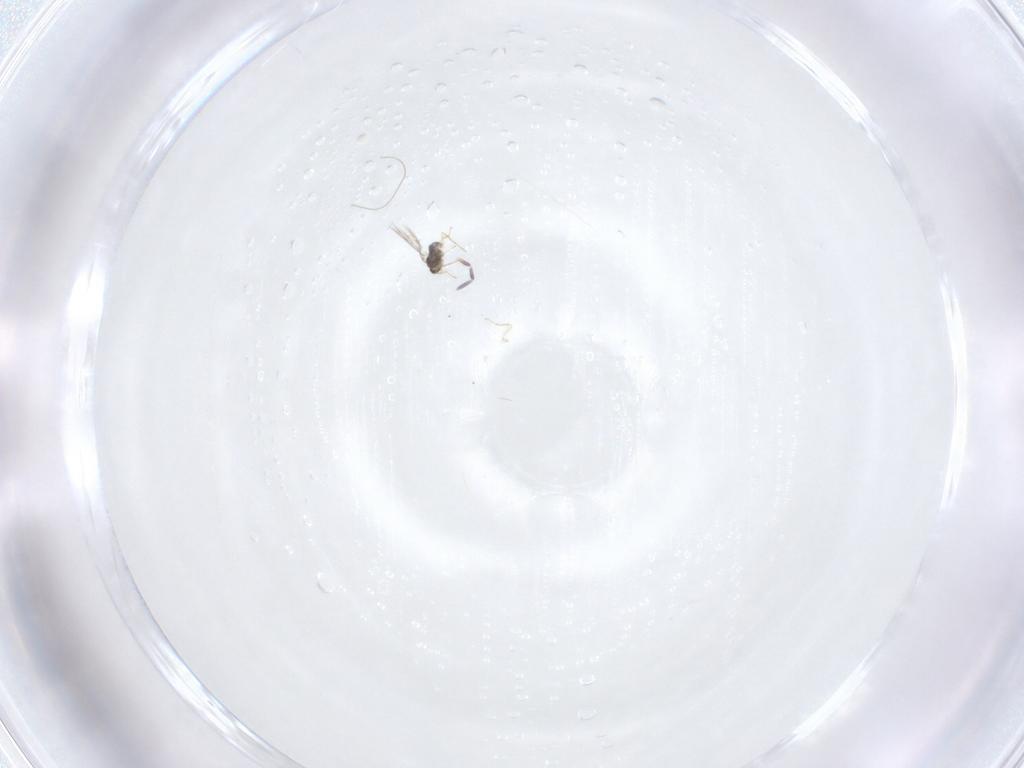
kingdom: Animalia
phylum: Arthropoda
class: Insecta
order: Hymenoptera
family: Mymaridae
